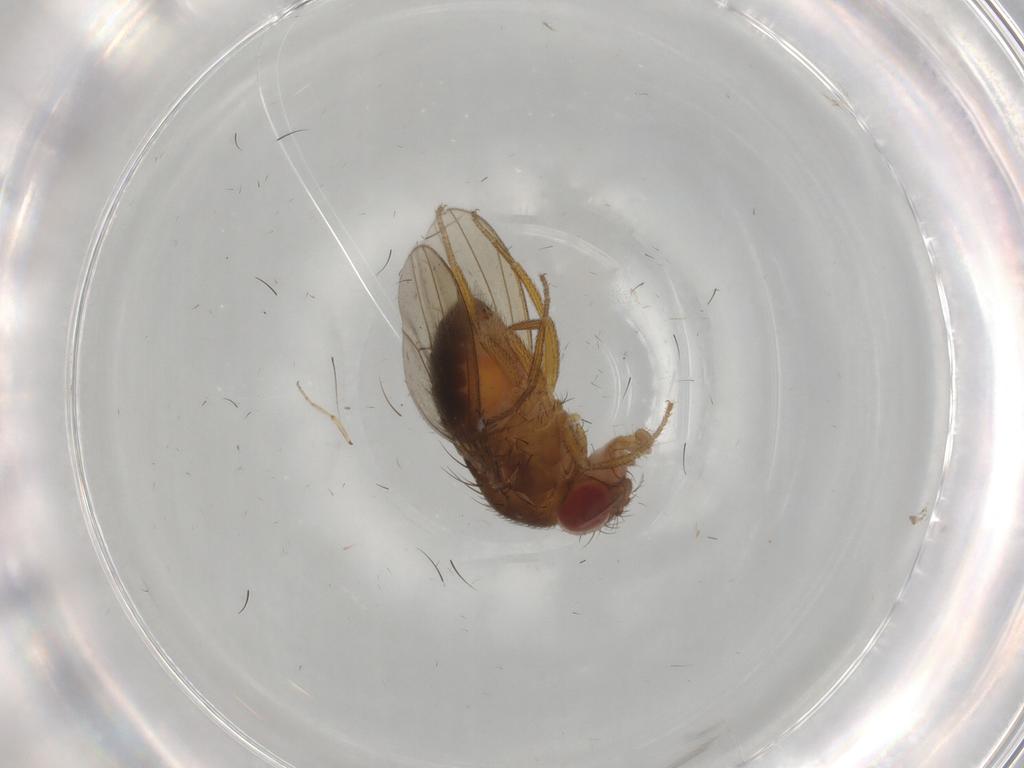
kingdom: Animalia
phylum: Arthropoda
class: Insecta
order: Diptera
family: Drosophilidae
